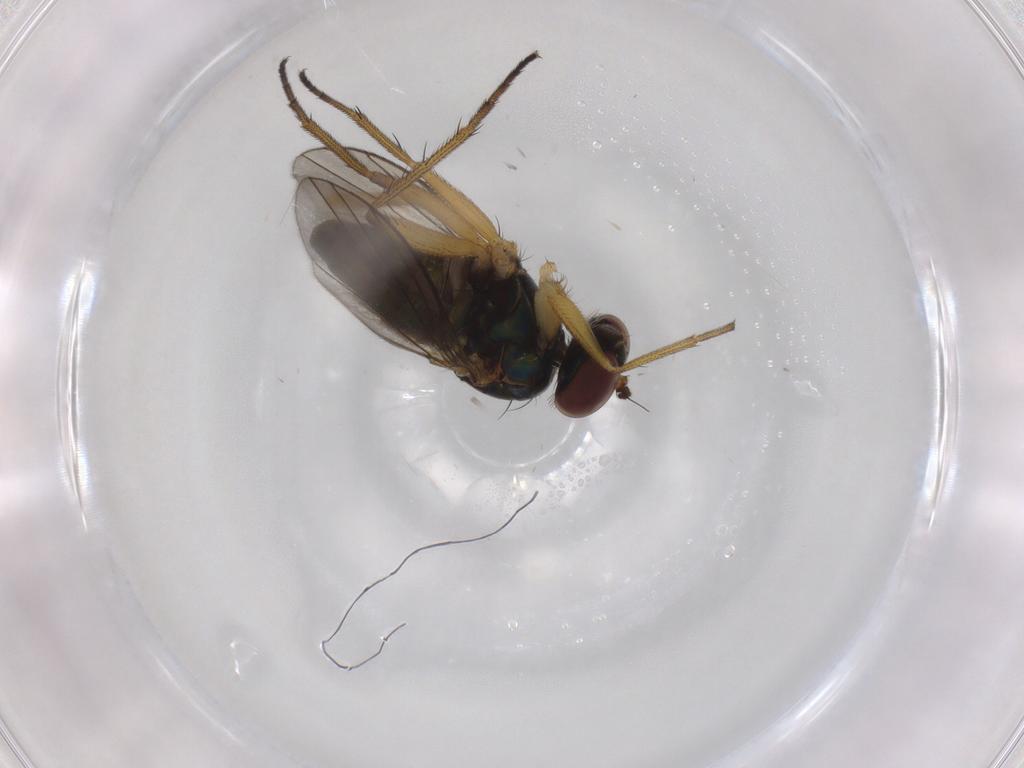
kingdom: Animalia
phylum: Arthropoda
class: Insecta
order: Diptera
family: Dolichopodidae
